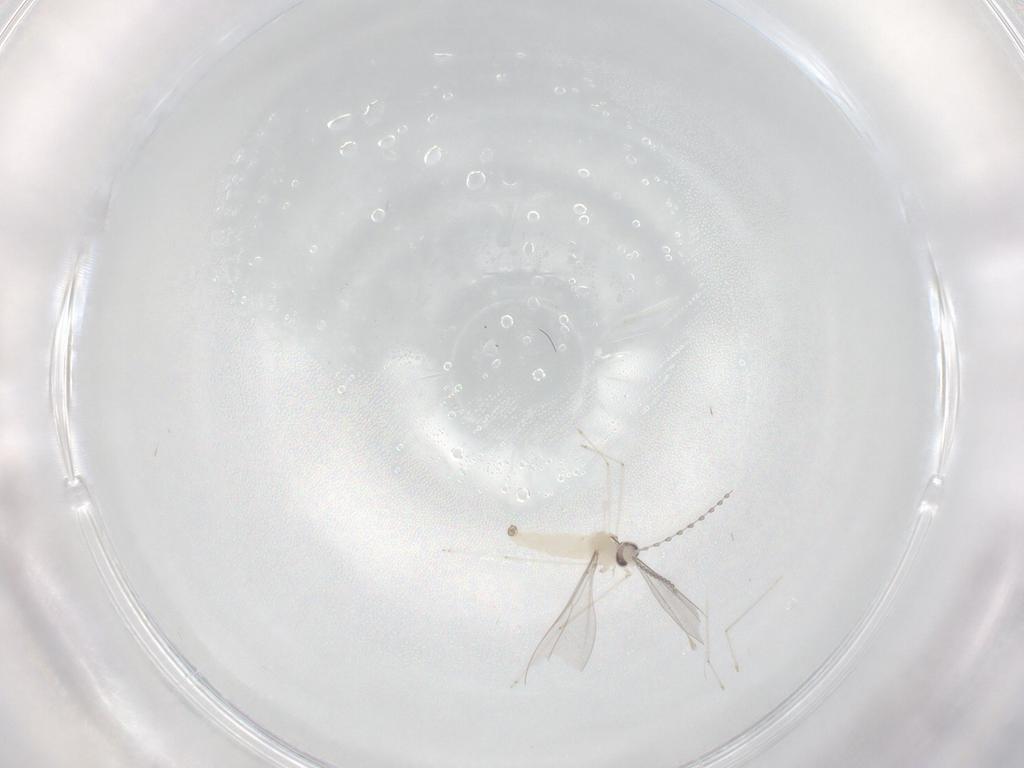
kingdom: Animalia
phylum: Arthropoda
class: Insecta
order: Diptera
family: Cecidomyiidae
